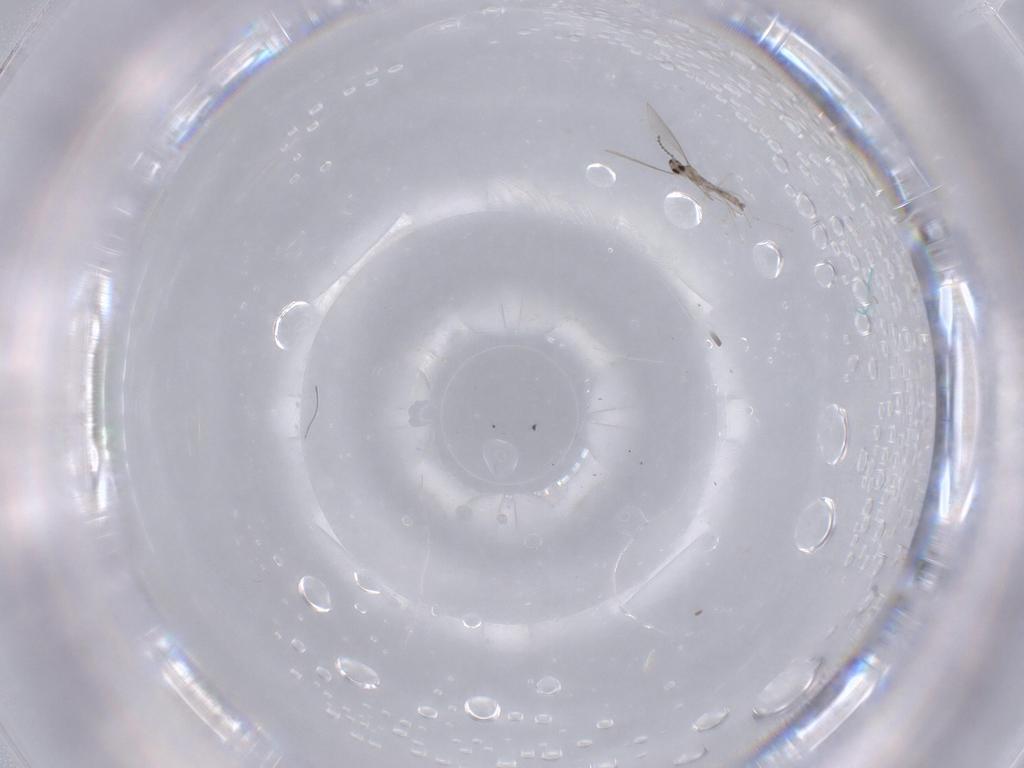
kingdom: Animalia
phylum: Arthropoda
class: Insecta
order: Diptera
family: Cecidomyiidae
